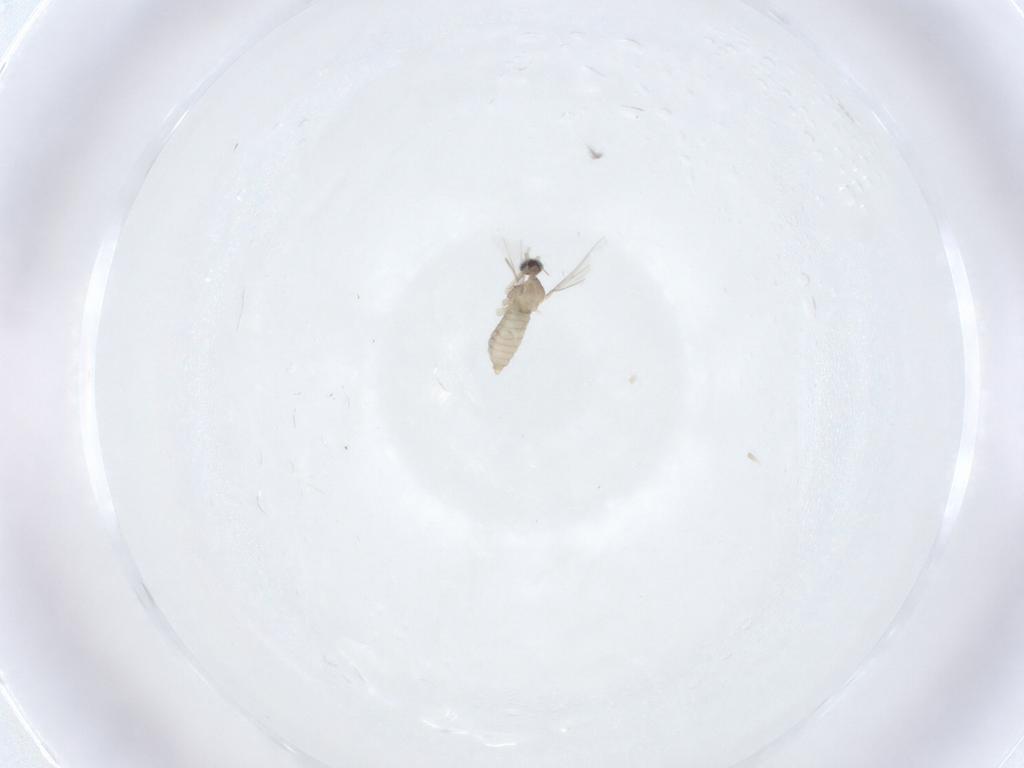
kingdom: Animalia
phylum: Arthropoda
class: Insecta
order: Diptera
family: Cecidomyiidae
